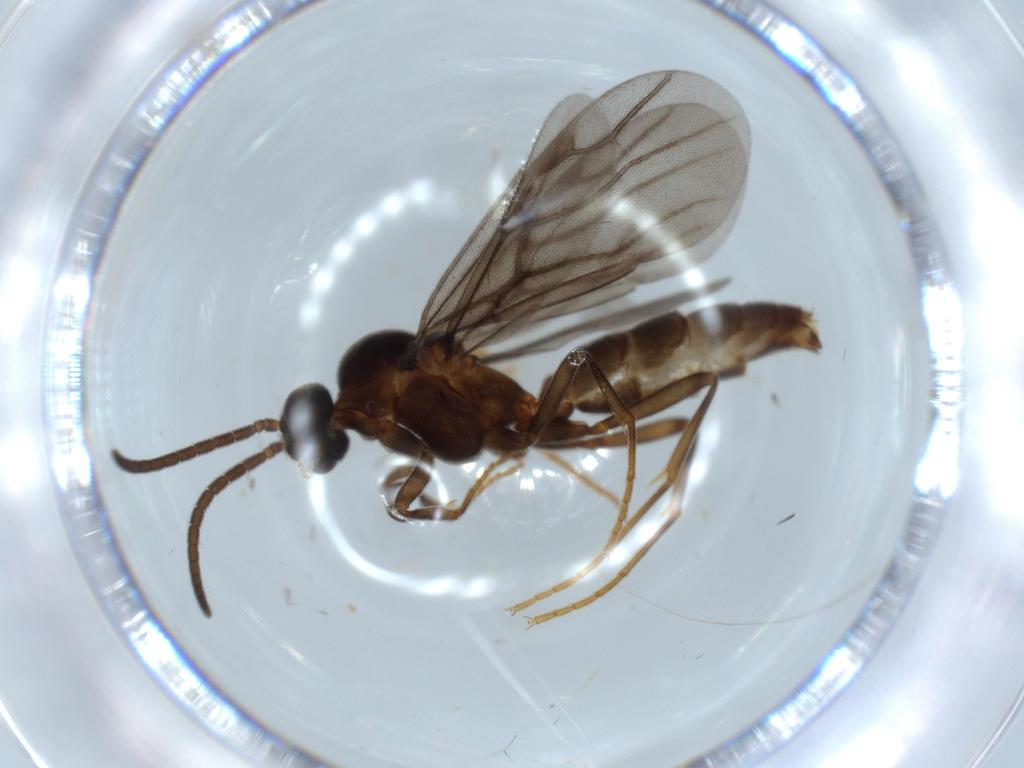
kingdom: Animalia
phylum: Arthropoda
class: Insecta
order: Hymenoptera
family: Formicidae
